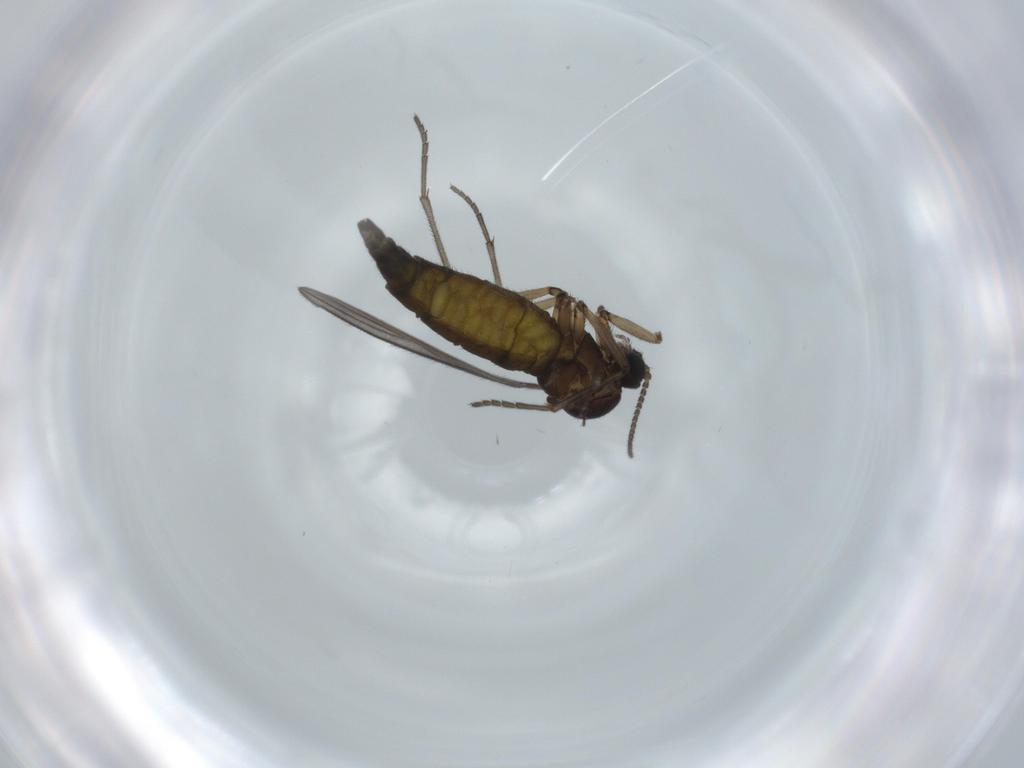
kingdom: Animalia
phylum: Arthropoda
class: Insecta
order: Diptera
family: Sciaridae
